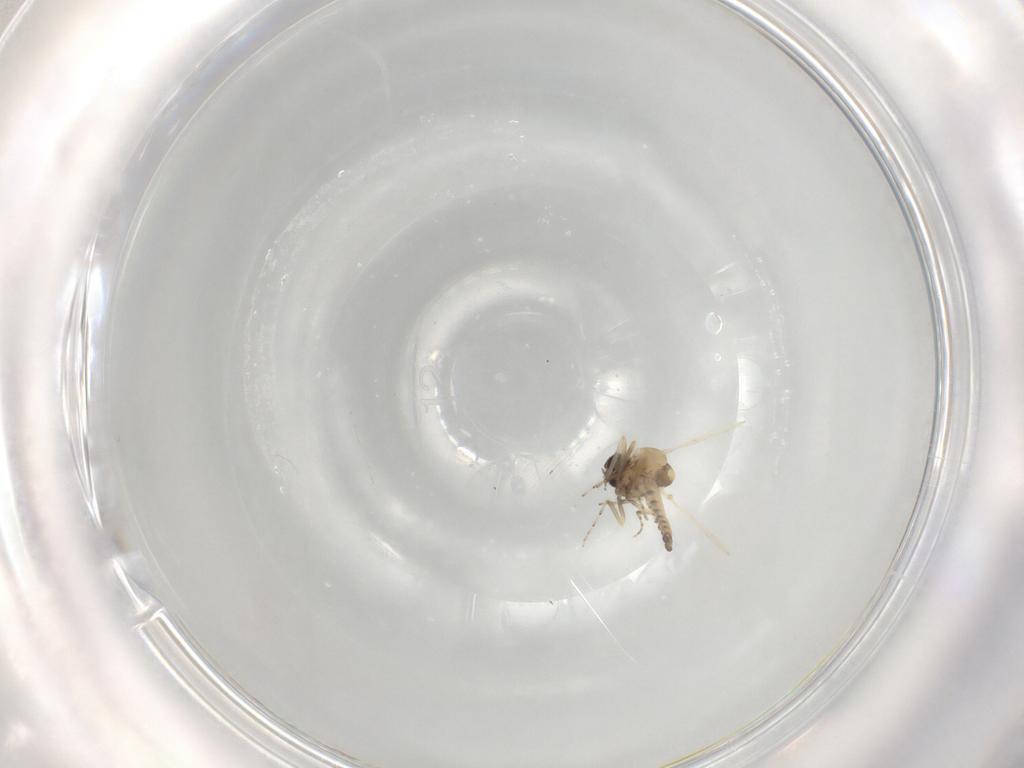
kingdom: Animalia
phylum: Arthropoda
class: Insecta
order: Diptera
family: Ceratopogonidae
